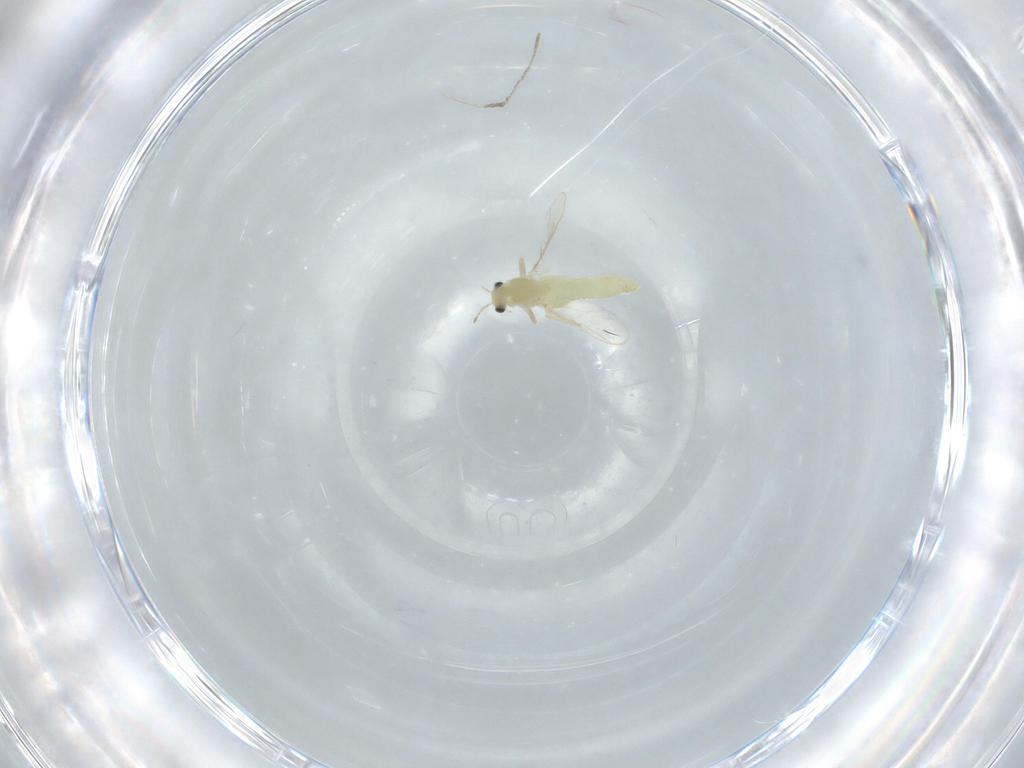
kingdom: Animalia
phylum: Arthropoda
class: Insecta
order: Diptera
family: Chironomidae
